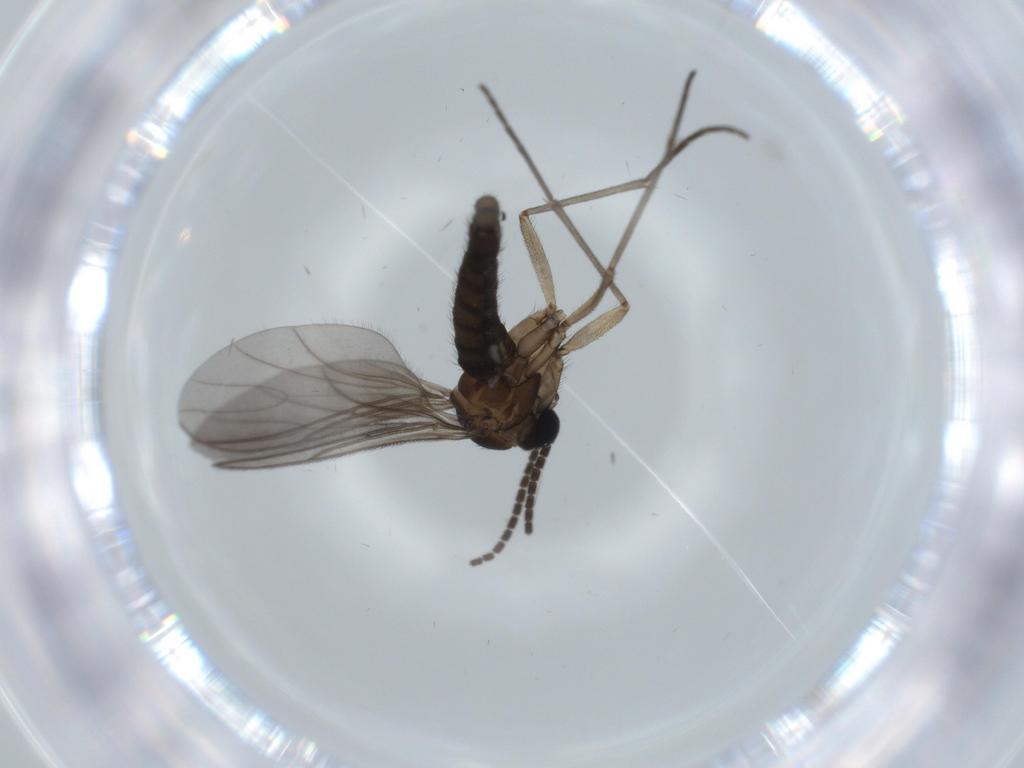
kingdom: Animalia
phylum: Arthropoda
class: Insecta
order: Diptera
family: Sciaridae
